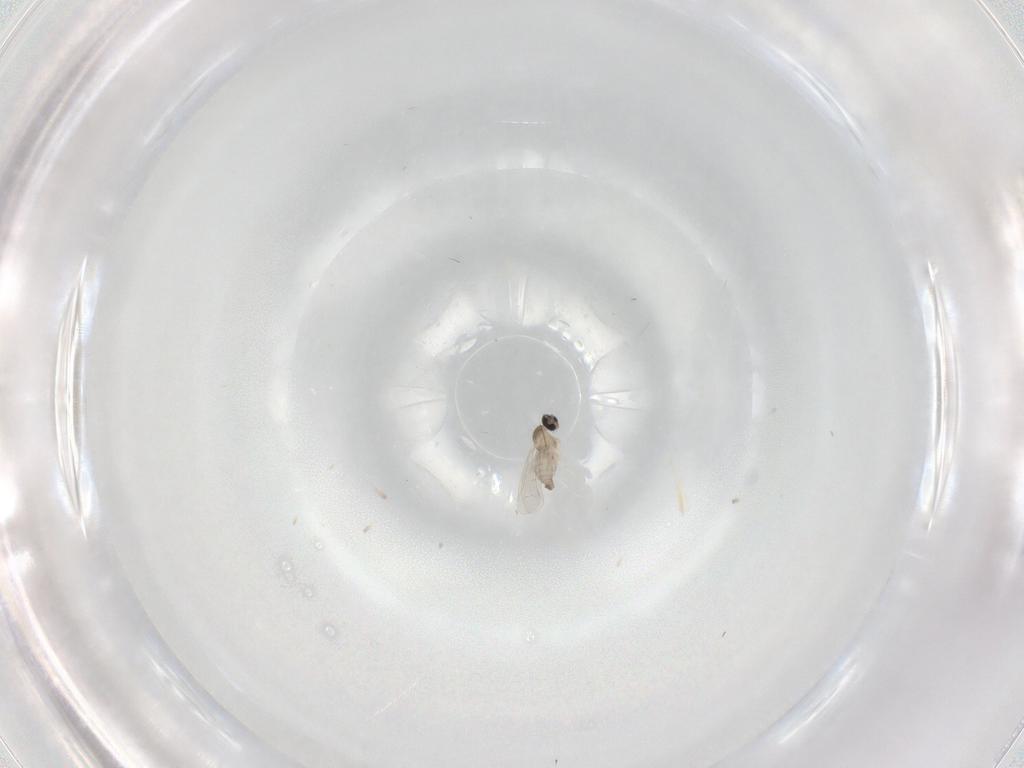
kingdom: Animalia
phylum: Arthropoda
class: Insecta
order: Diptera
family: Cecidomyiidae
